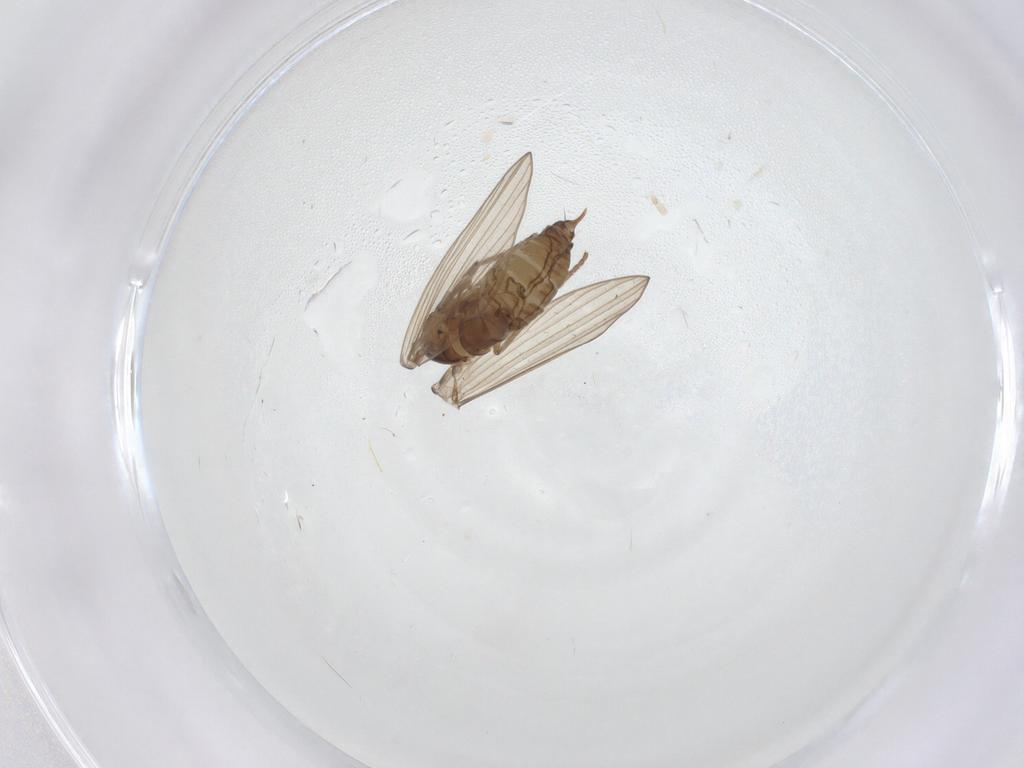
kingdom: Animalia
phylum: Arthropoda
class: Insecta
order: Diptera
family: Psychodidae
